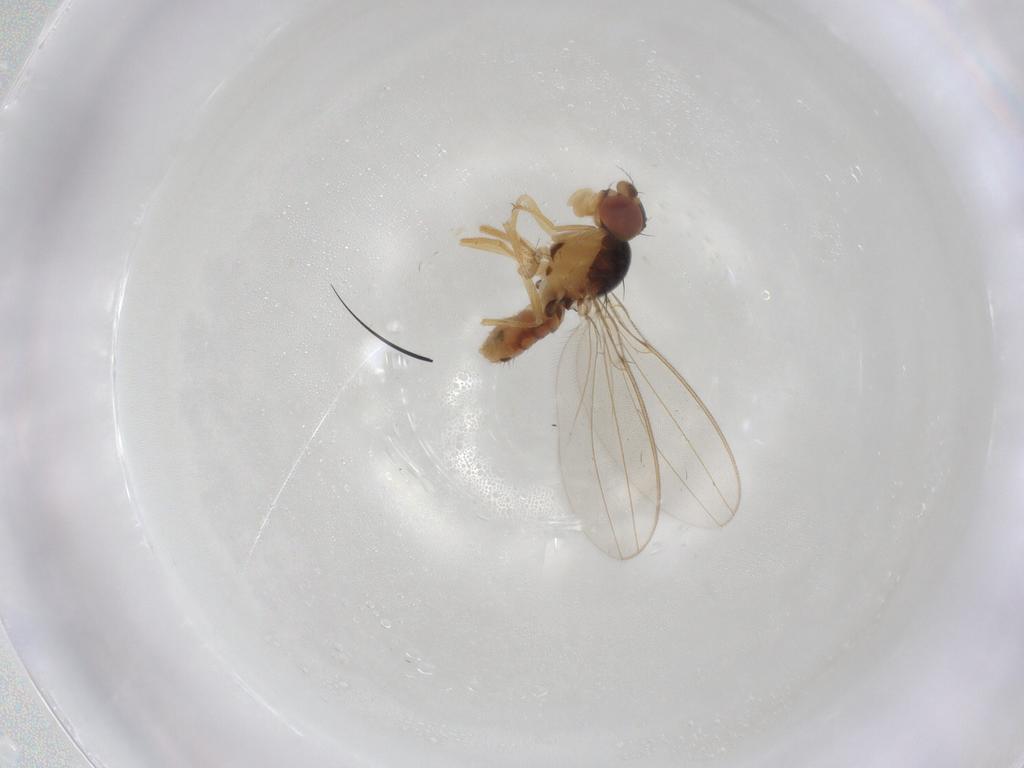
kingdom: Animalia
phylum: Arthropoda
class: Insecta
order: Diptera
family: Chironomidae
